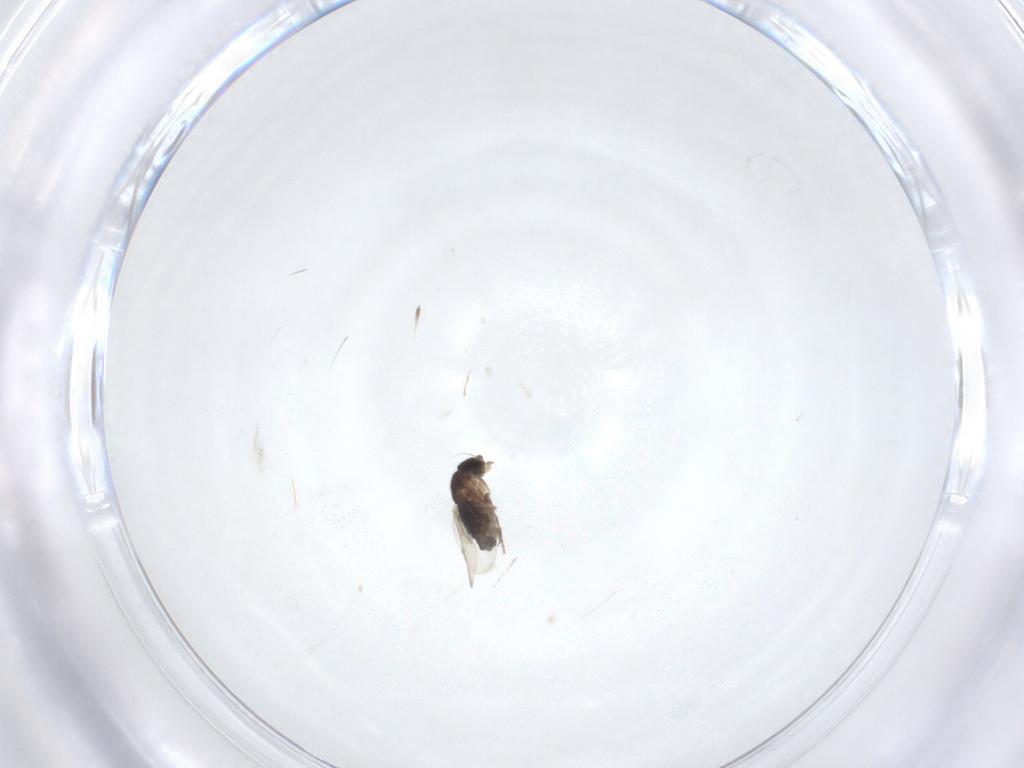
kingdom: Animalia
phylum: Arthropoda
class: Insecta
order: Diptera
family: Phoridae
